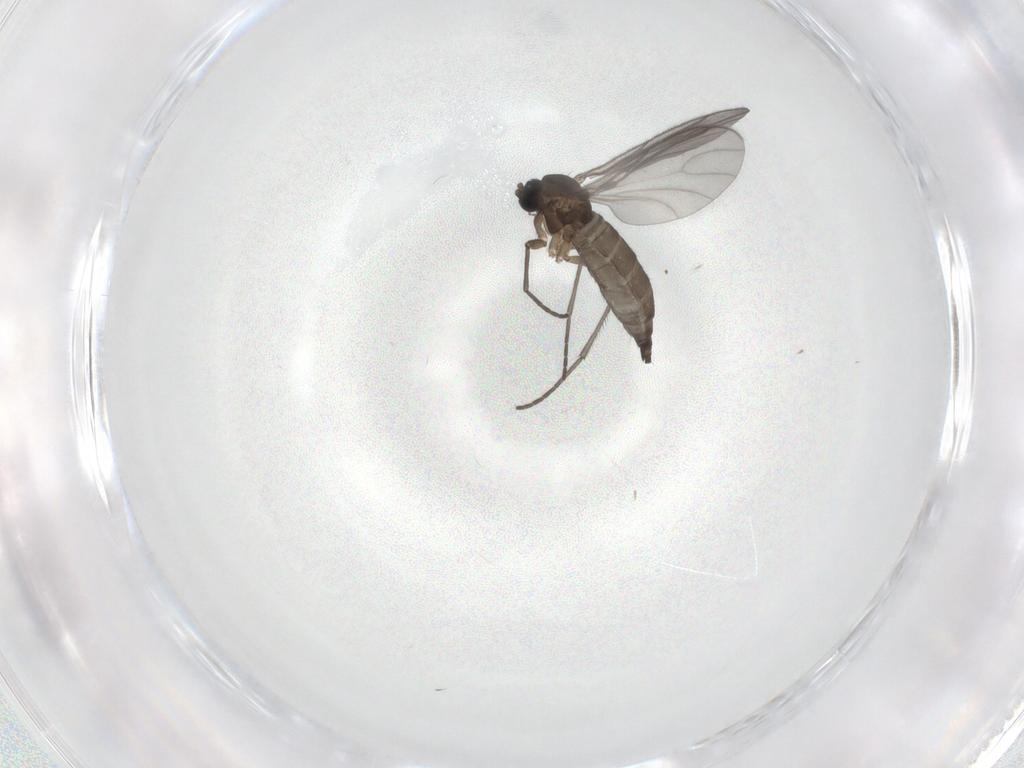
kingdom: Animalia
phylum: Arthropoda
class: Insecta
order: Diptera
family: Sciaridae
